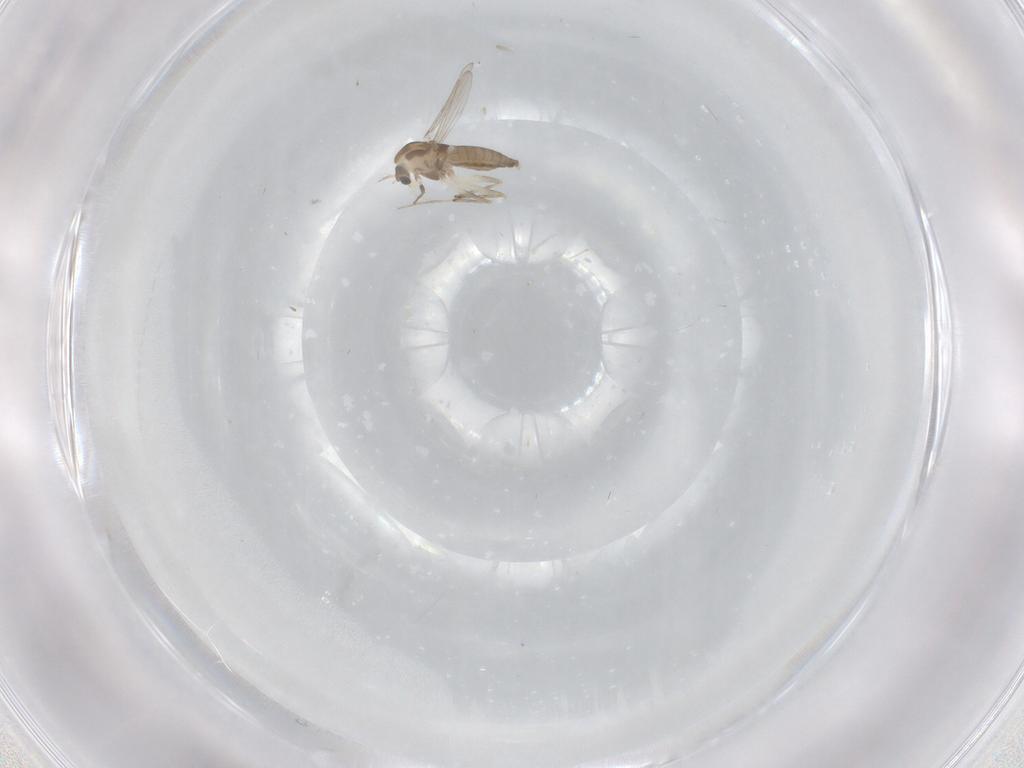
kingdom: Animalia
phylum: Arthropoda
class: Insecta
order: Diptera
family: Chironomidae
